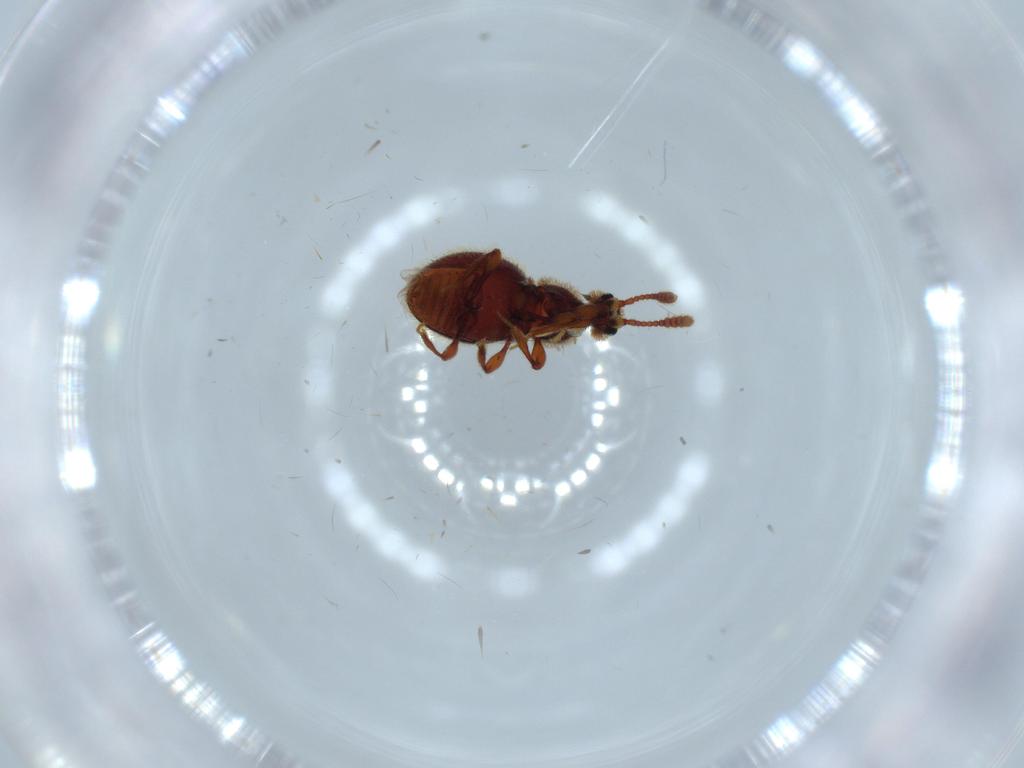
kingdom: Animalia
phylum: Arthropoda
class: Insecta
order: Coleoptera
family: Ptilodactylidae
